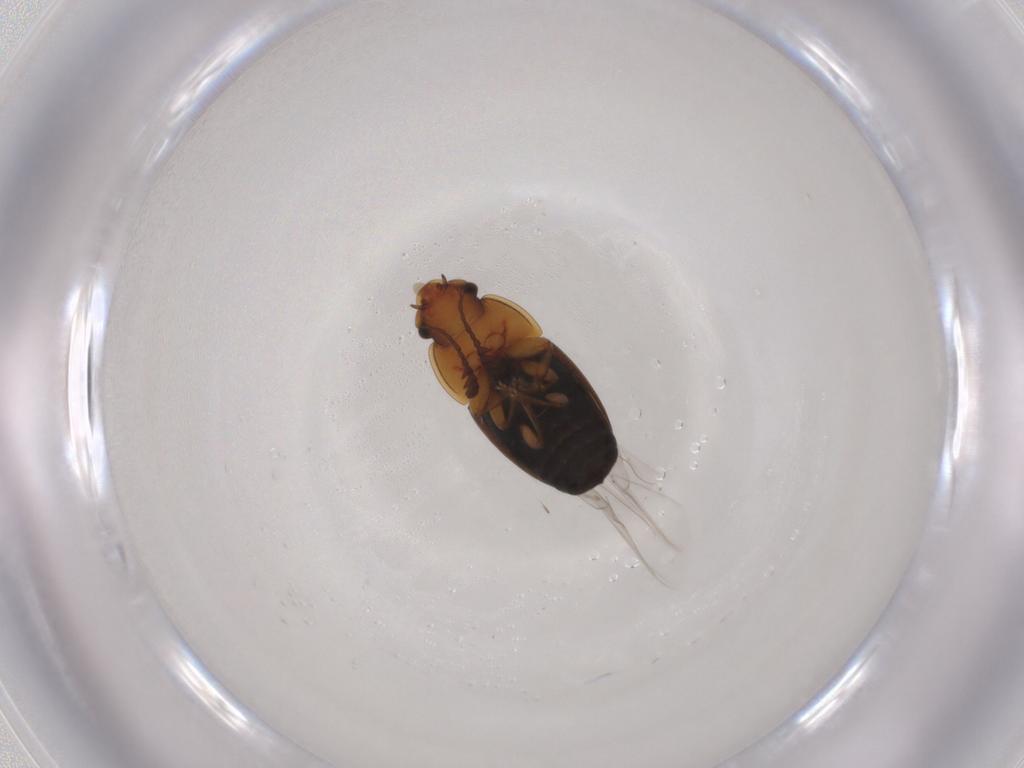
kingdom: Animalia
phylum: Arthropoda
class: Insecta
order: Coleoptera
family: Nitidulidae
